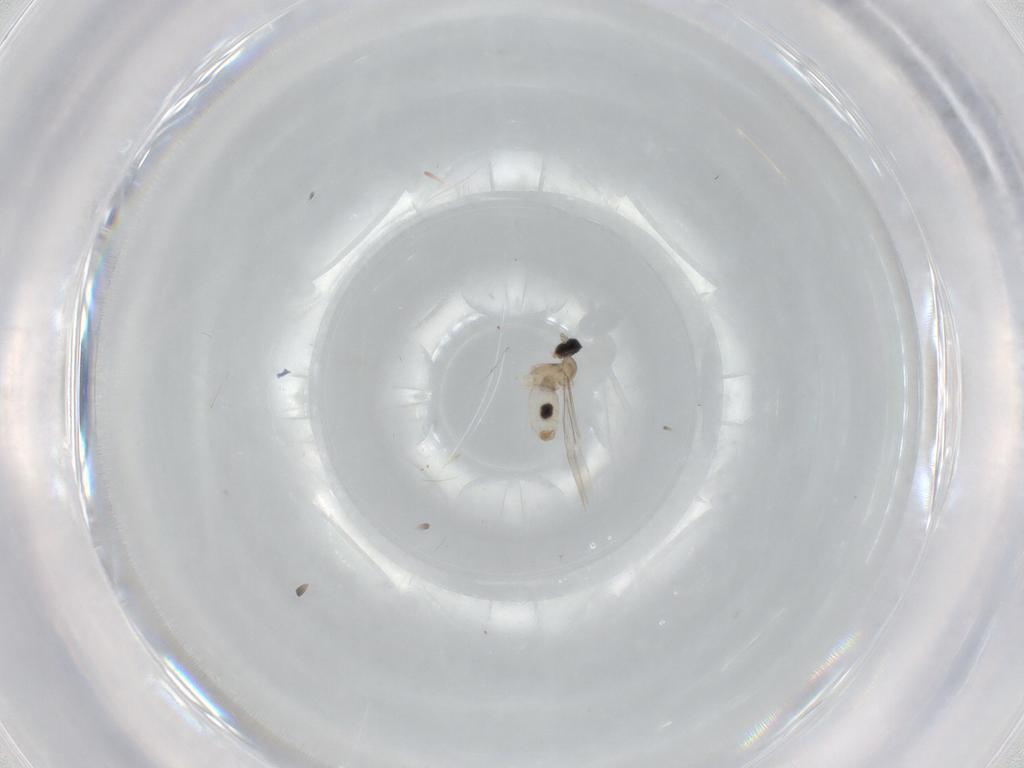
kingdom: Animalia
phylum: Arthropoda
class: Insecta
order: Diptera
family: Cecidomyiidae
